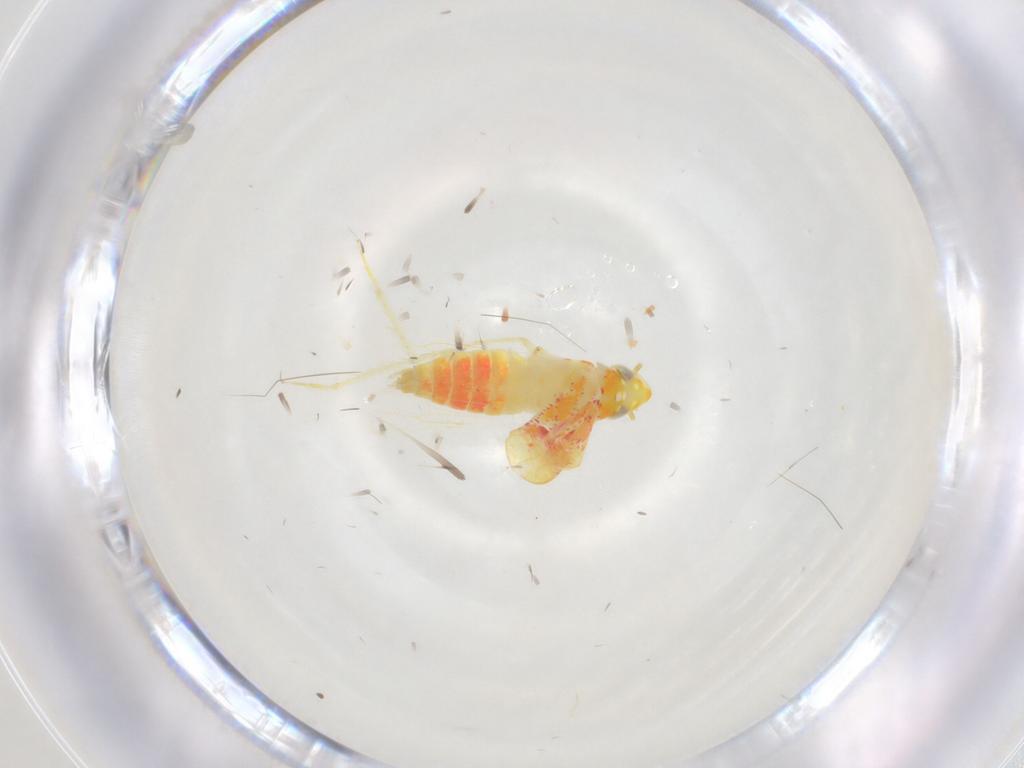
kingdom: Animalia
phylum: Arthropoda
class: Insecta
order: Hemiptera
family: Cicadellidae
